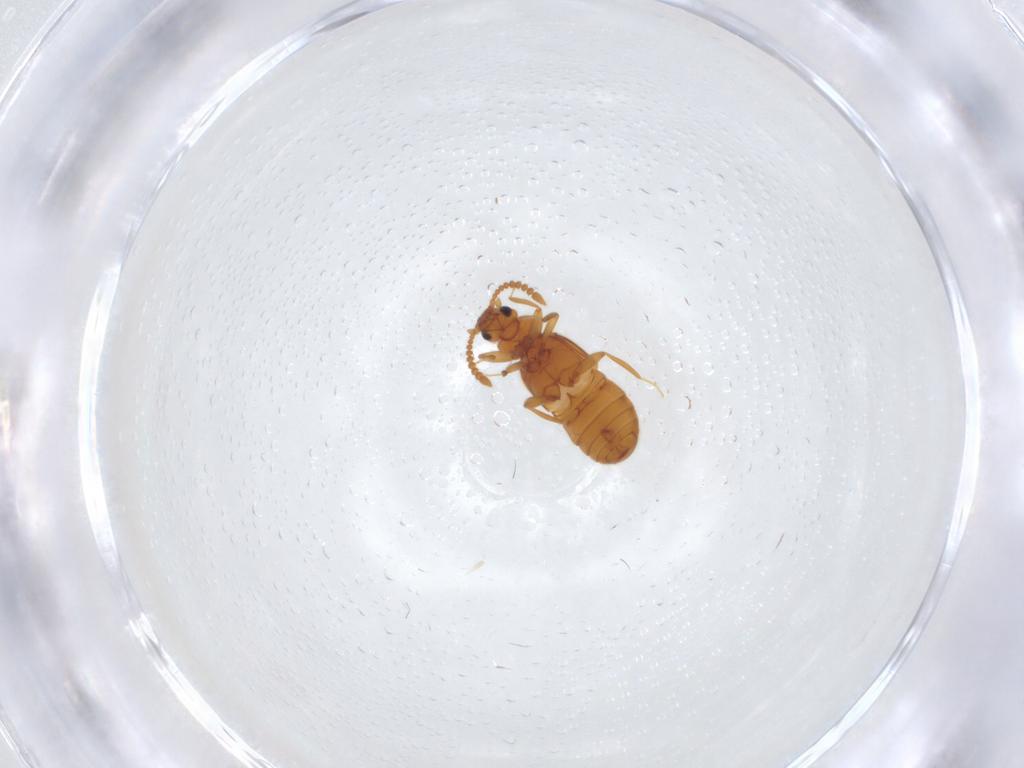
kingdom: Animalia
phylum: Arthropoda
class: Insecta
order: Coleoptera
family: Staphylinidae
